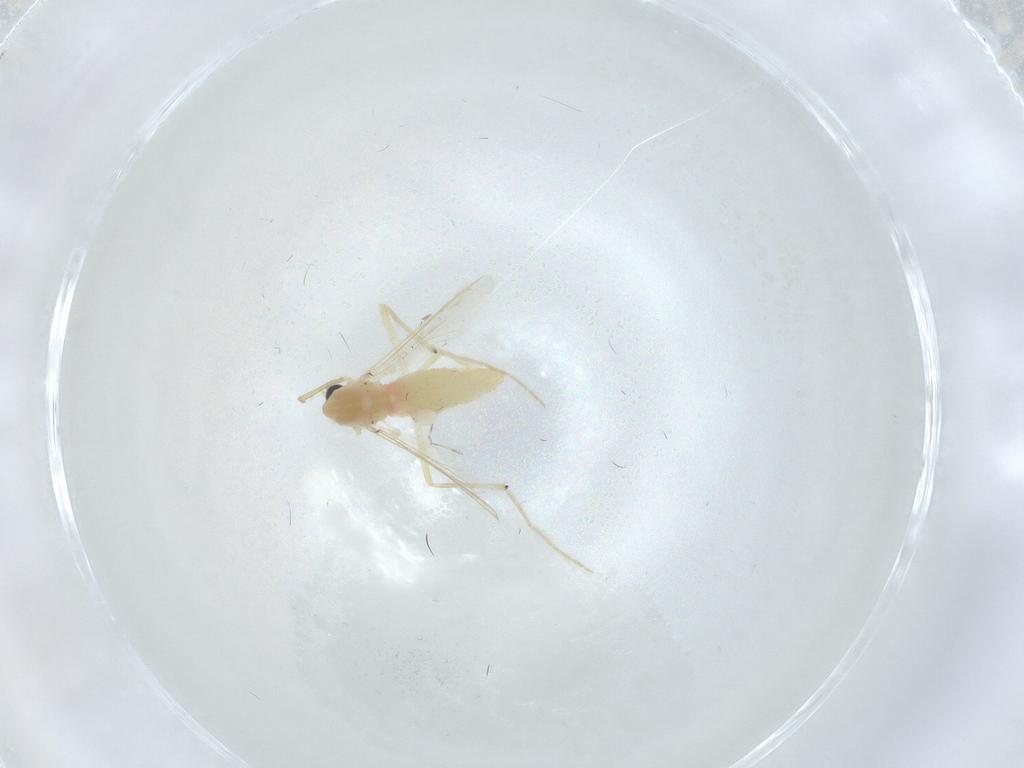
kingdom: Animalia
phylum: Arthropoda
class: Insecta
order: Diptera
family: Chironomidae
